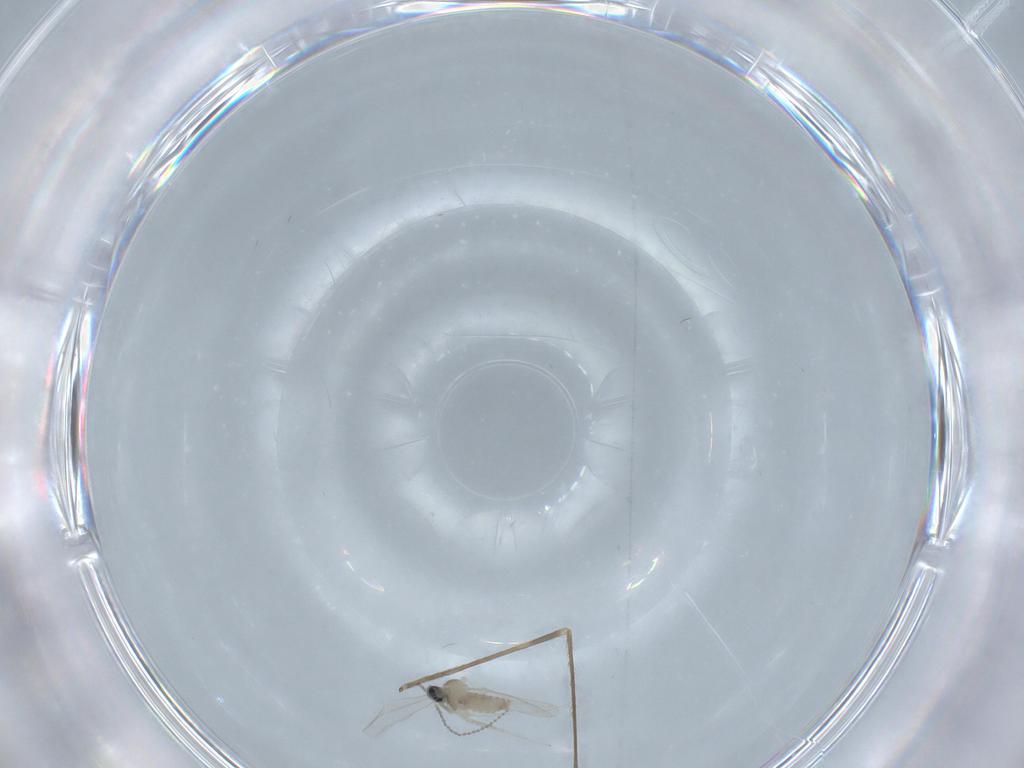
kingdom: Animalia
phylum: Arthropoda
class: Insecta
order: Diptera
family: Limoniidae
